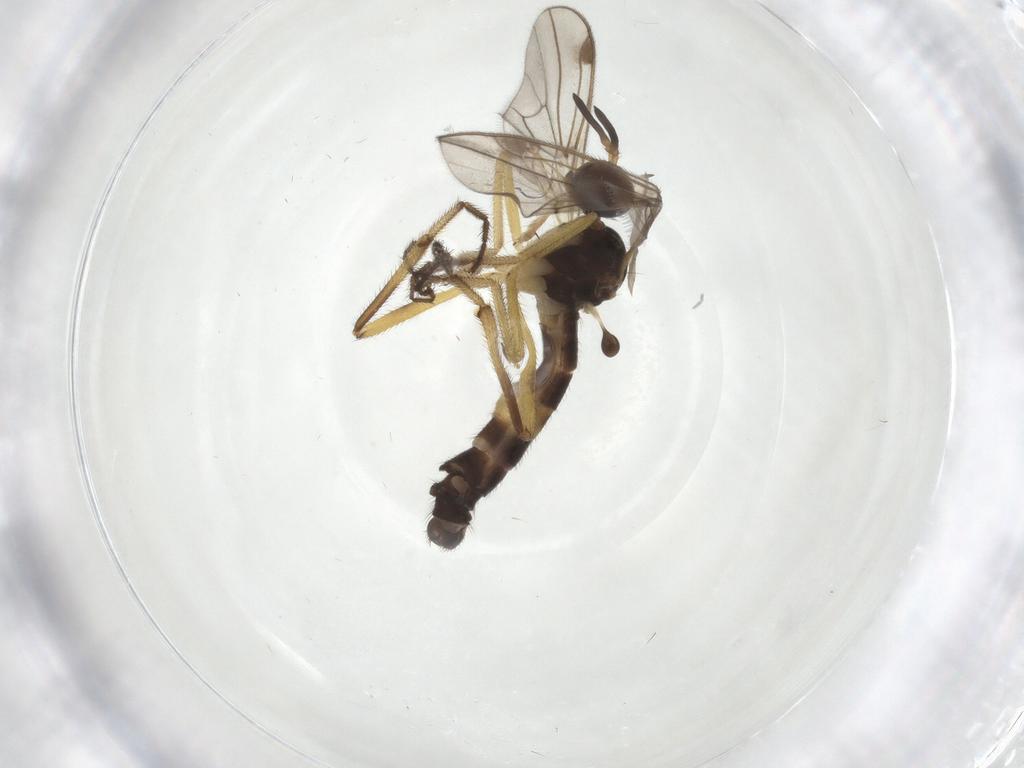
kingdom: Animalia
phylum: Arthropoda
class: Insecta
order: Diptera
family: Empididae
